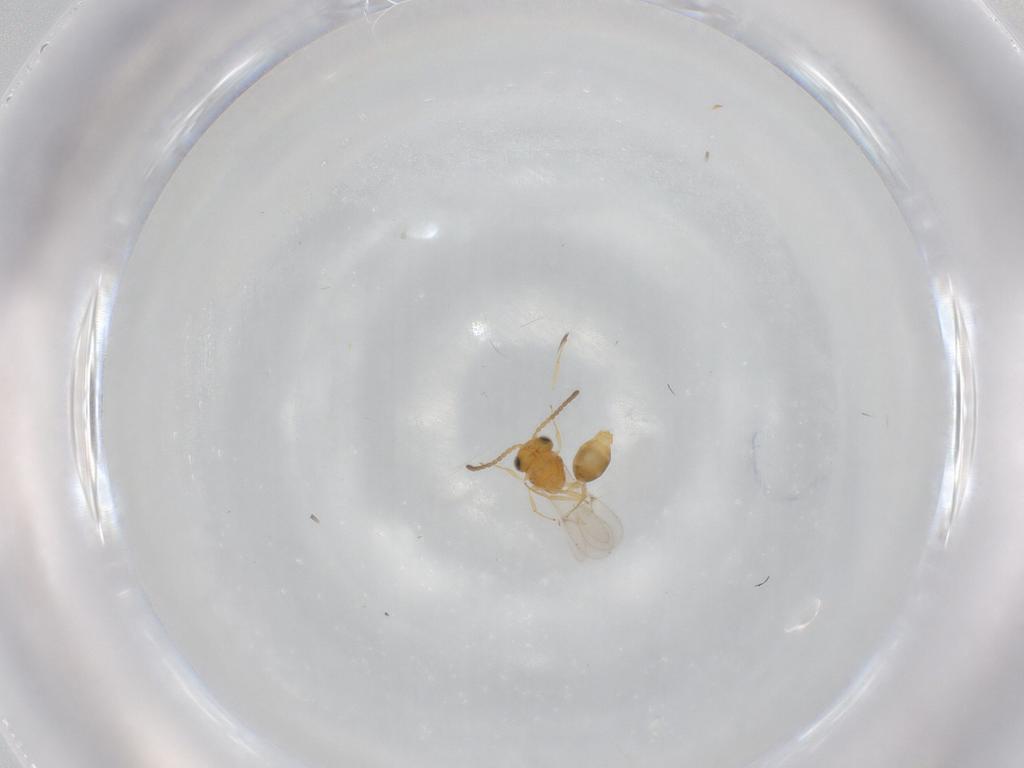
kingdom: Animalia
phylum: Arthropoda
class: Insecta
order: Hymenoptera
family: Scelionidae
